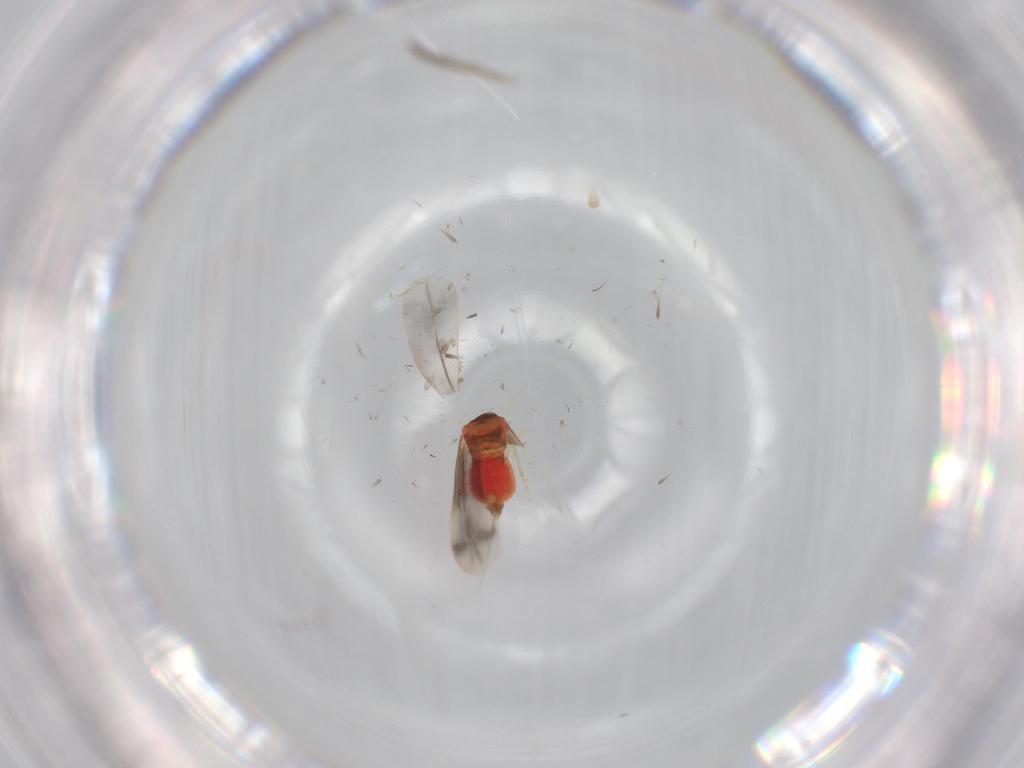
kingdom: Animalia
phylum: Arthropoda
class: Insecta
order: Hemiptera
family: Aleyrodidae
